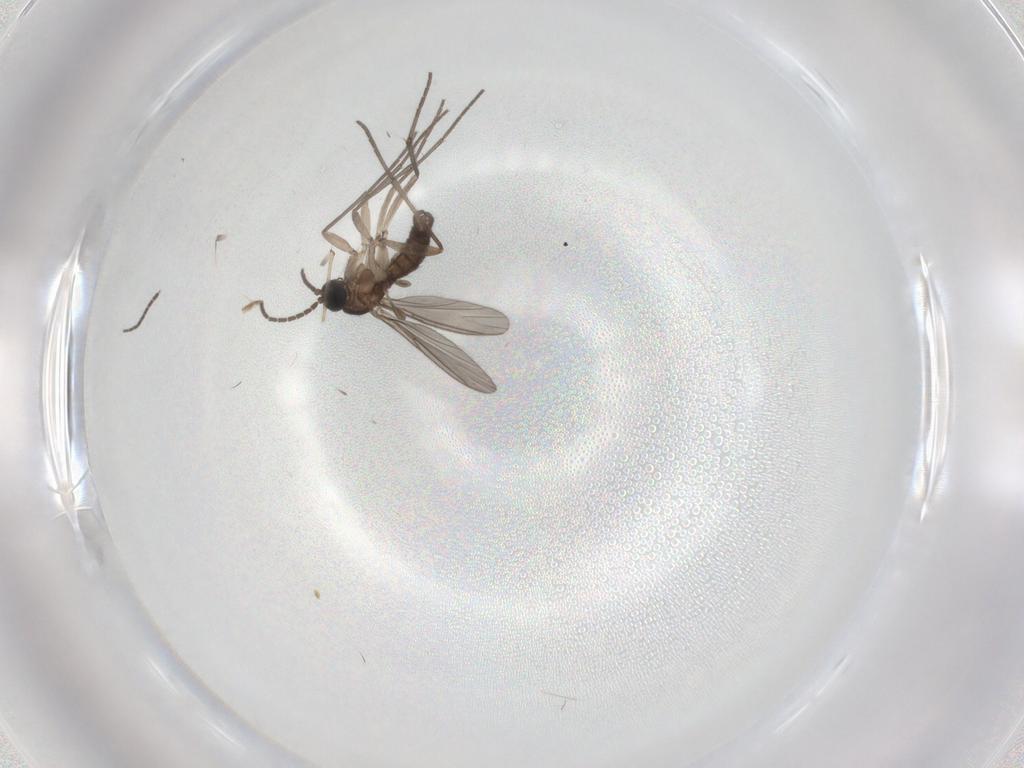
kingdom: Animalia
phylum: Arthropoda
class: Insecta
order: Diptera
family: Sciaridae
